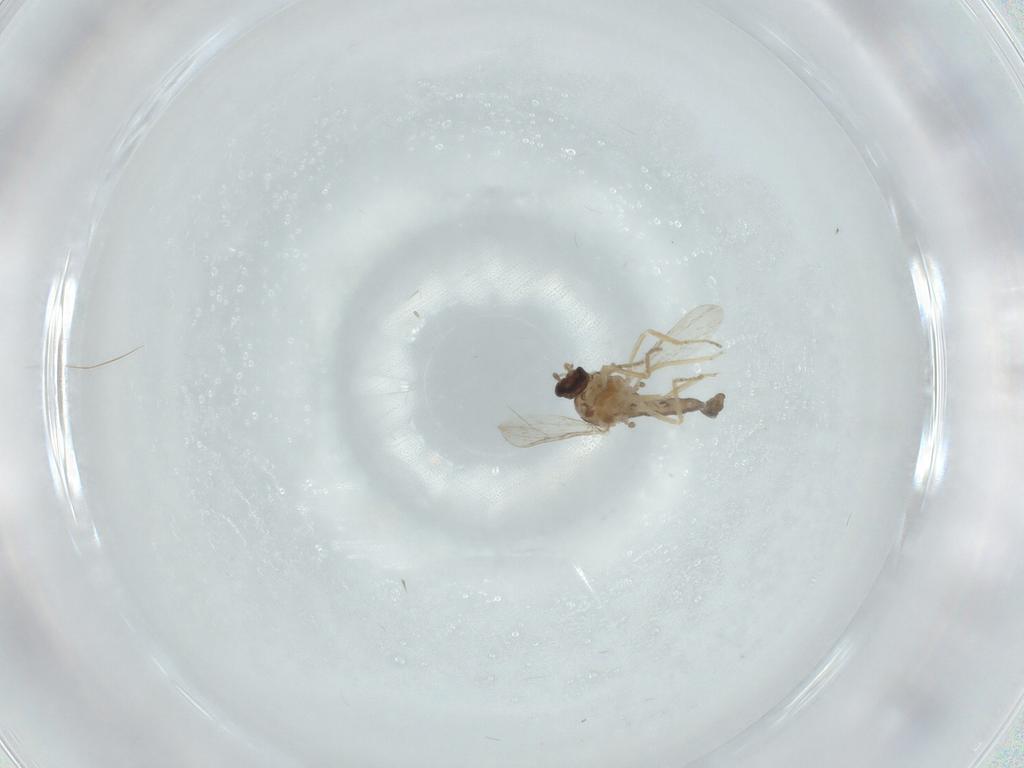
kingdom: Animalia
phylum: Arthropoda
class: Insecta
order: Diptera
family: Ceratopogonidae
